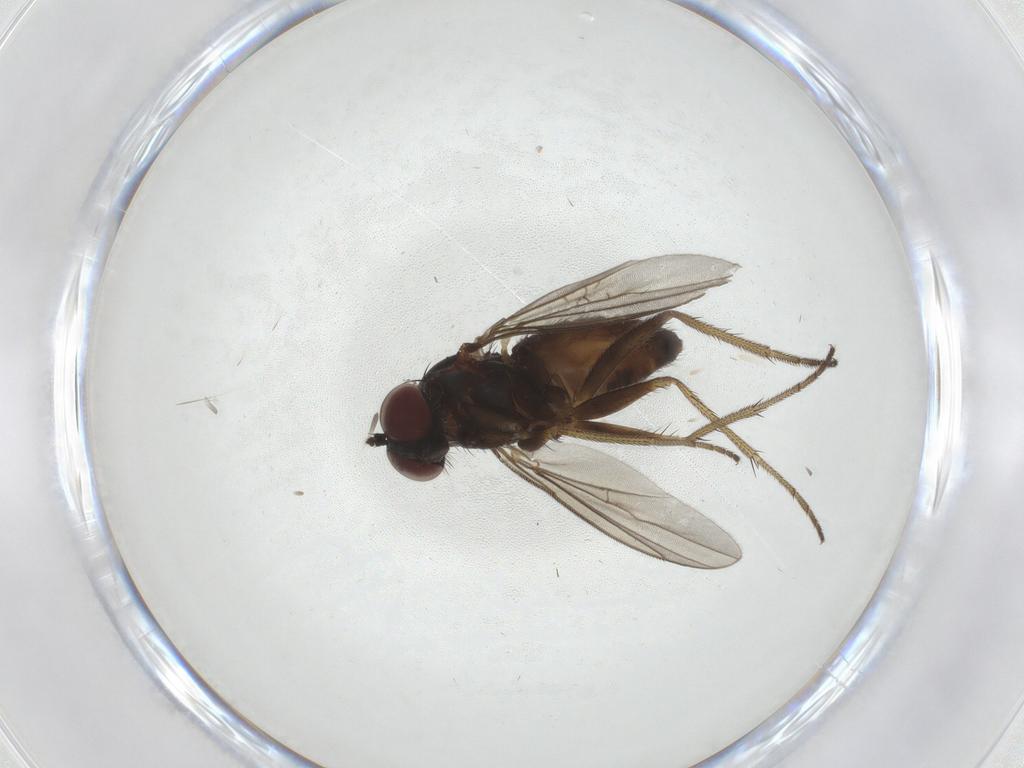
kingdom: Animalia
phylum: Arthropoda
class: Insecta
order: Diptera
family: Dolichopodidae
